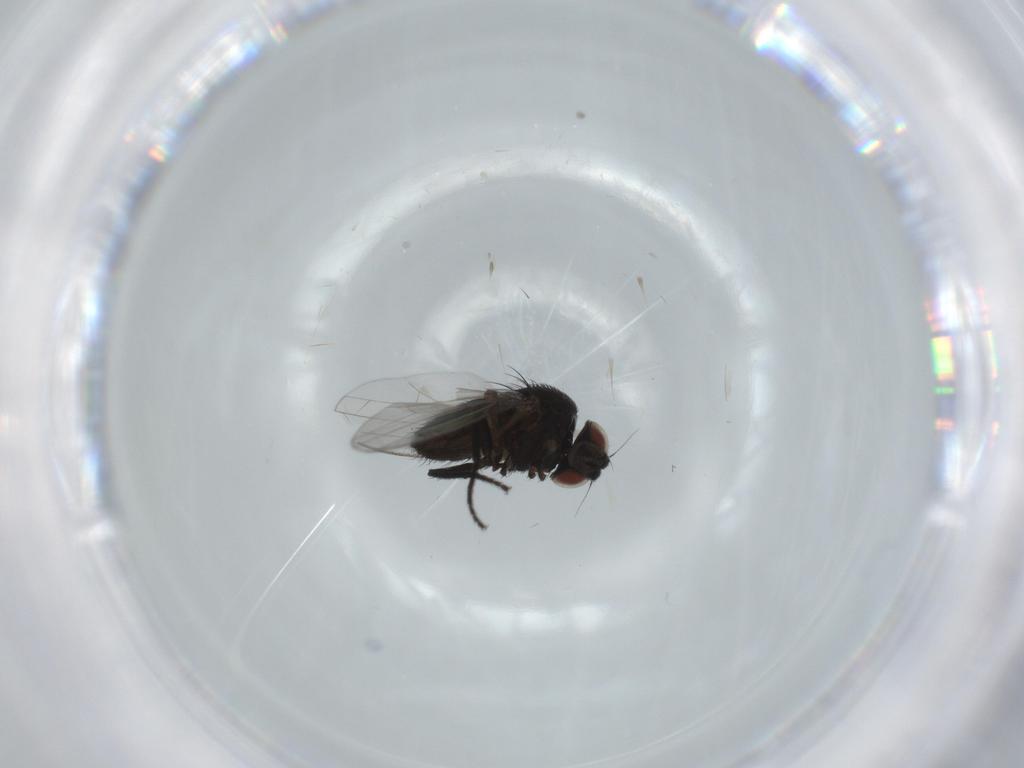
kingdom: Animalia
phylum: Arthropoda
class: Insecta
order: Diptera
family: Milichiidae
